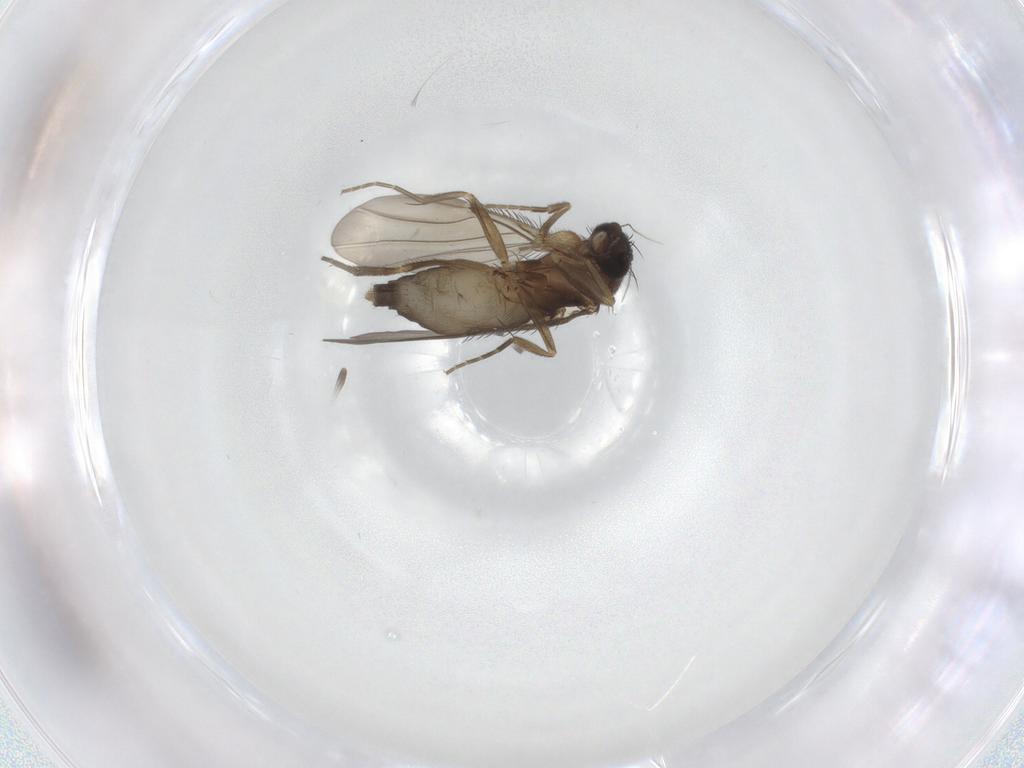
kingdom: Animalia
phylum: Arthropoda
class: Insecta
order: Diptera
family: Phoridae
